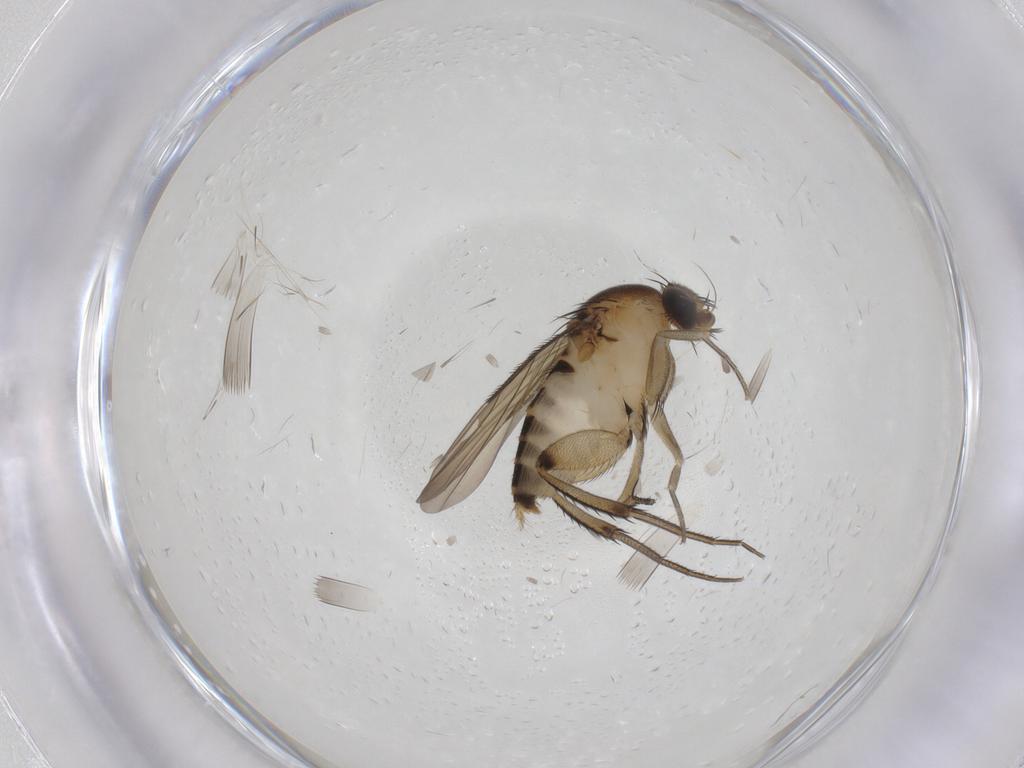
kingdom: Animalia
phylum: Arthropoda
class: Insecta
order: Diptera
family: Phoridae
